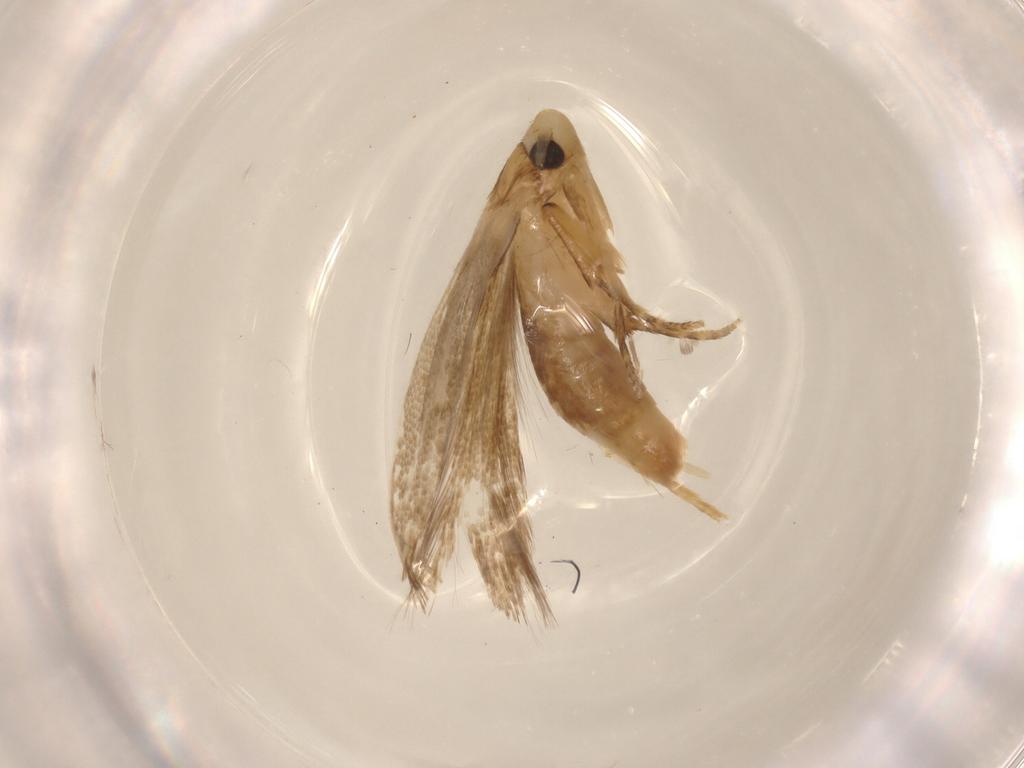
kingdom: Animalia
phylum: Arthropoda
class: Insecta
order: Lepidoptera
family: Tineidae
